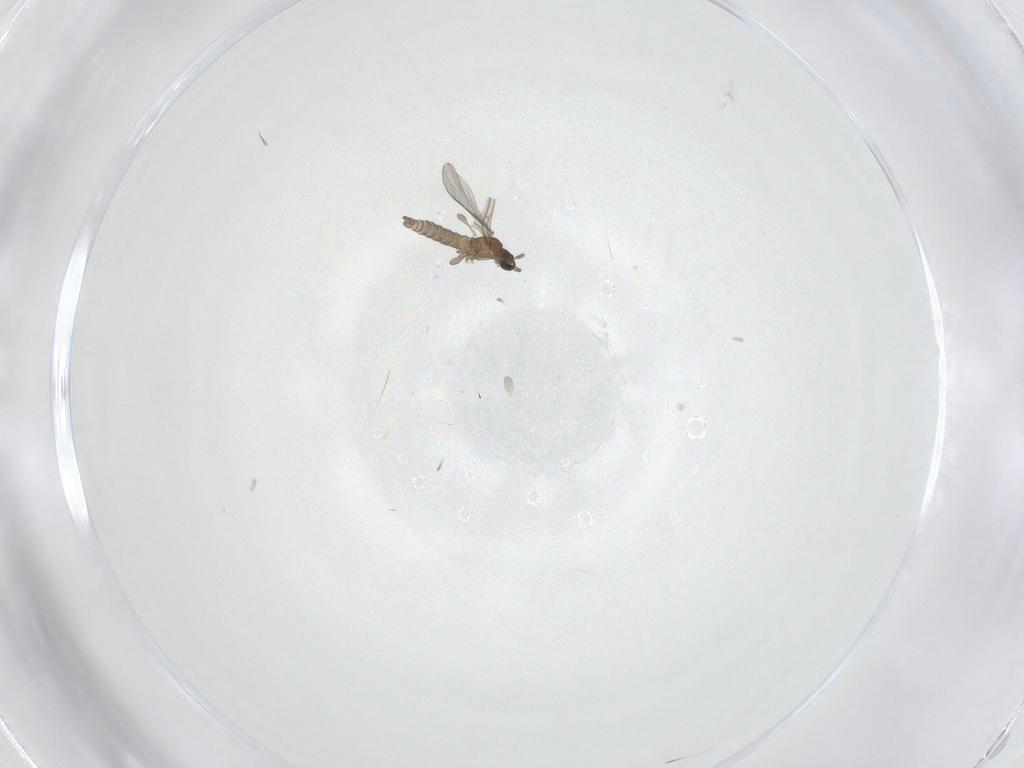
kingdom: Animalia
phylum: Arthropoda
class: Insecta
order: Diptera
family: Sciaridae
